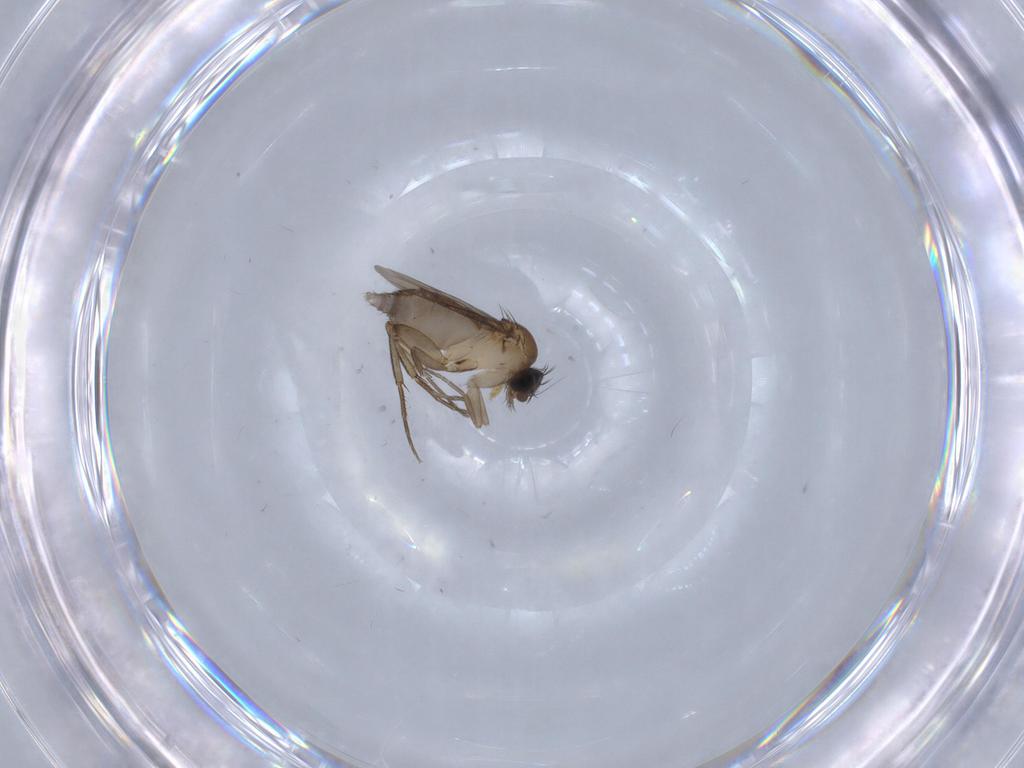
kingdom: Animalia
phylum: Arthropoda
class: Insecta
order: Diptera
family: Phoridae
